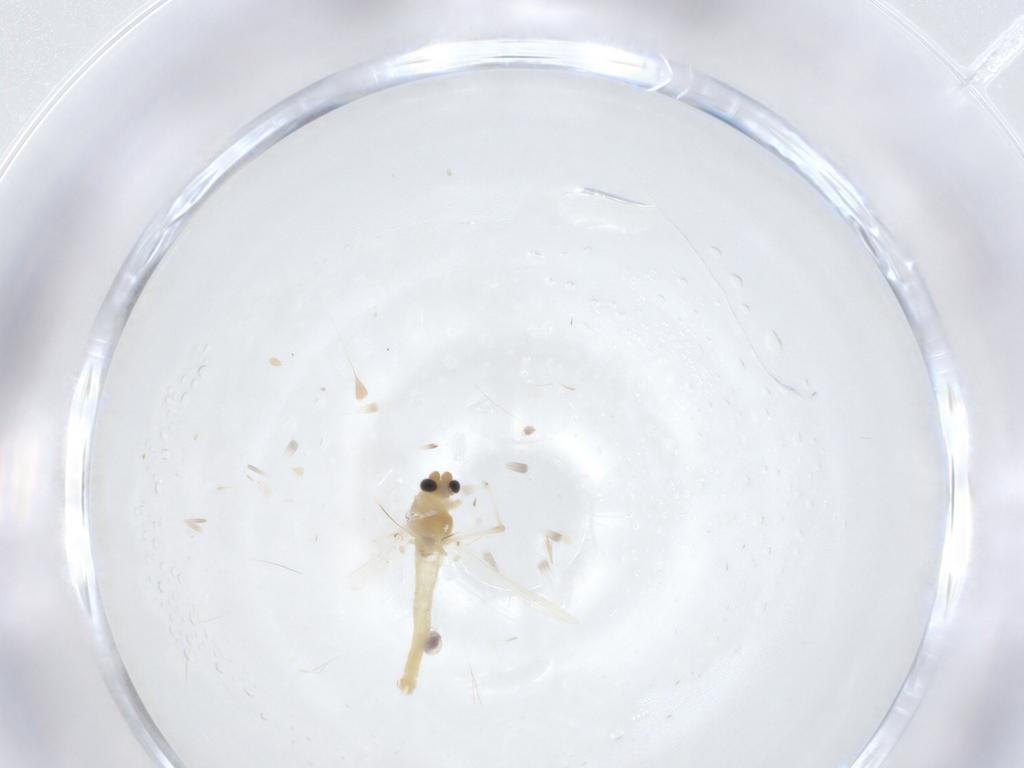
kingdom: Animalia
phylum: Arthropoda
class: Insecta
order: Diptera
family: Chironomidae
